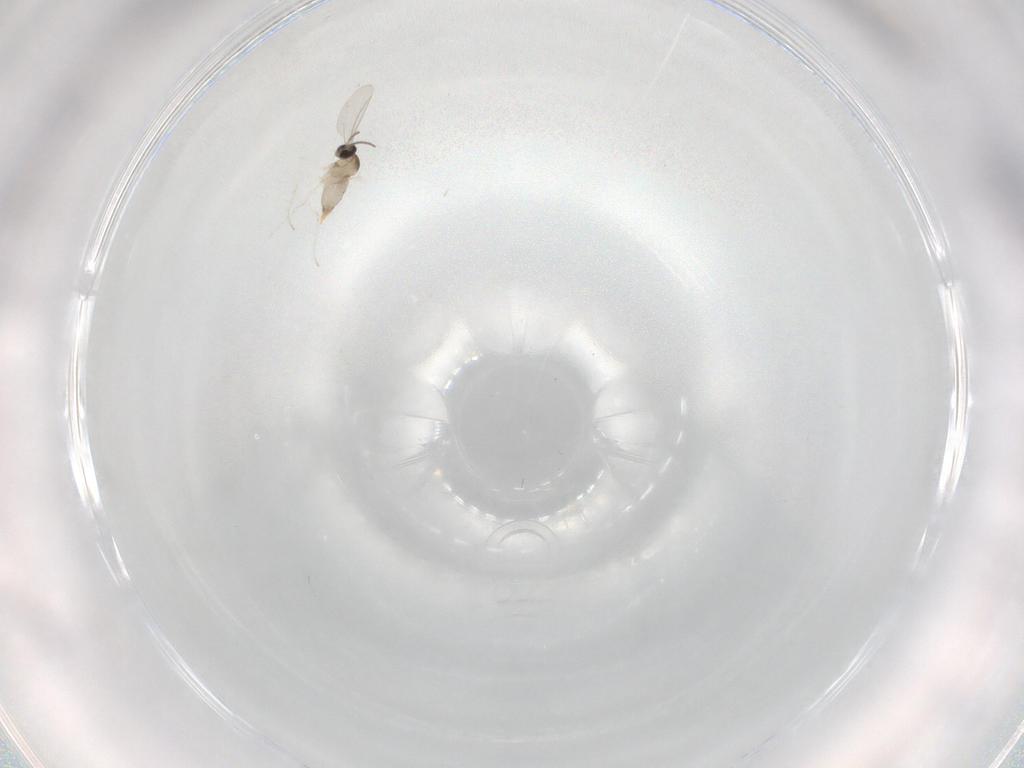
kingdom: Animalia
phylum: Arthropoda
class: Insecta
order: Diptera
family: Cecidomyiidae
